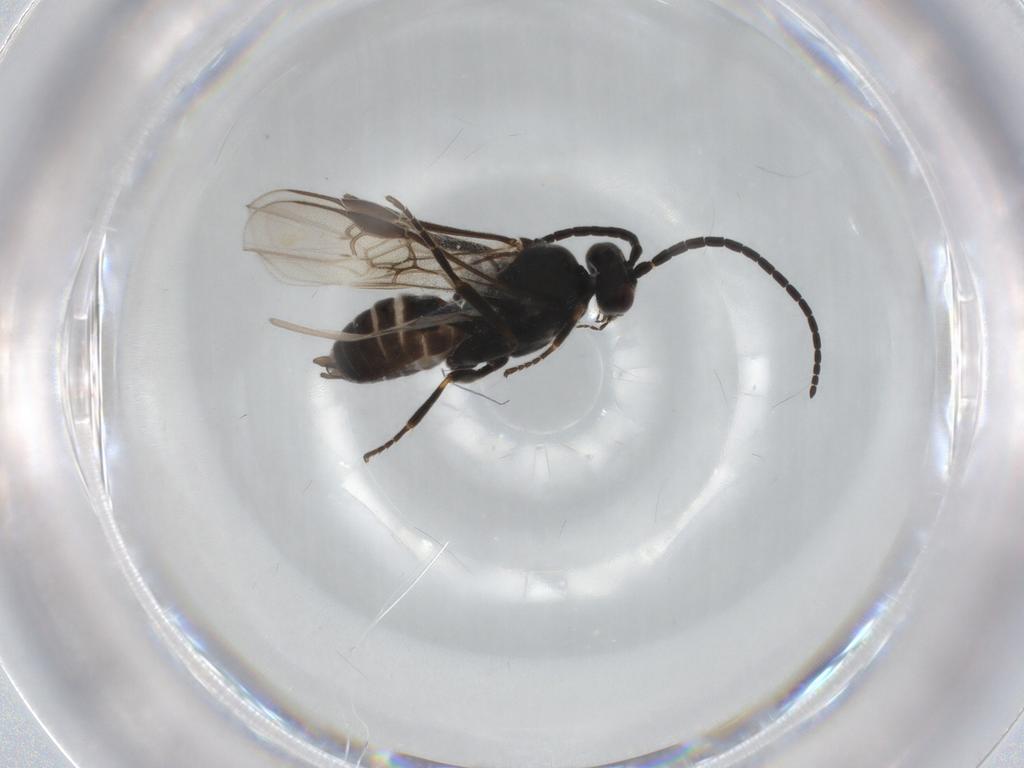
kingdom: Animalia
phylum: Arthropoda
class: Insecta
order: Hymenoptera
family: Braconidae
